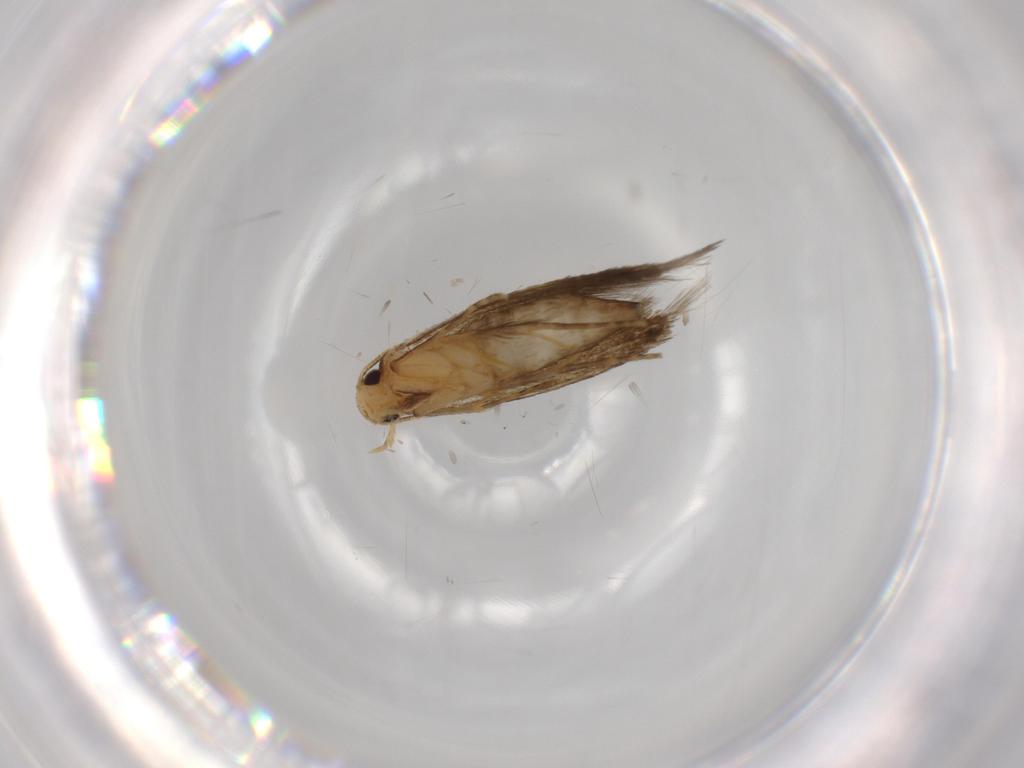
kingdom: Animalia
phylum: Arthropoda
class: Insecta
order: Lepidoptera
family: Tineidae
